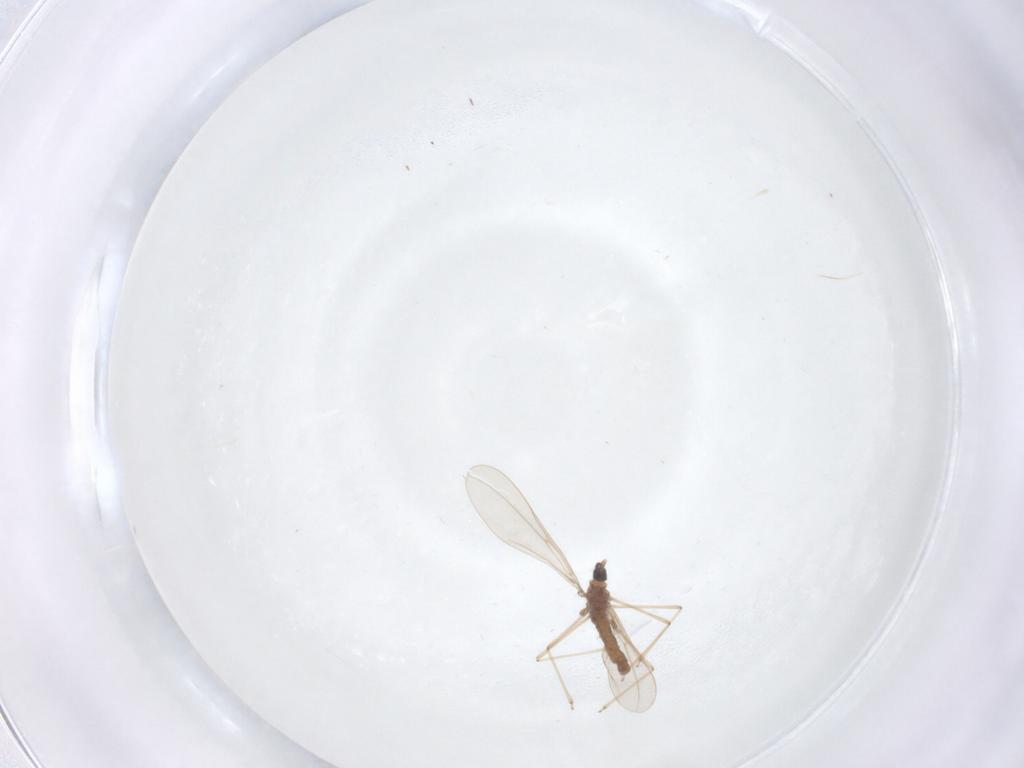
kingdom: Animalia
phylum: Arthropoda
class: Insecta
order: Diptera
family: Cecidomyiidae
